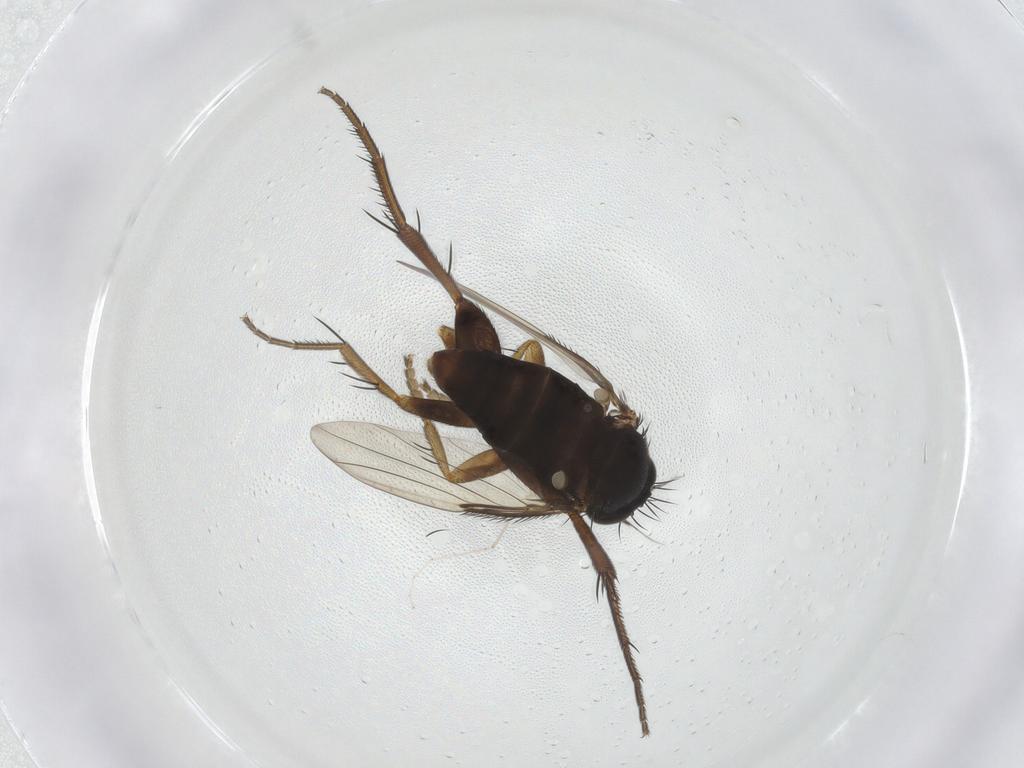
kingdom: Animalia
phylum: Arthropoda
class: Insecta
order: Diptera
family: Phoridae
